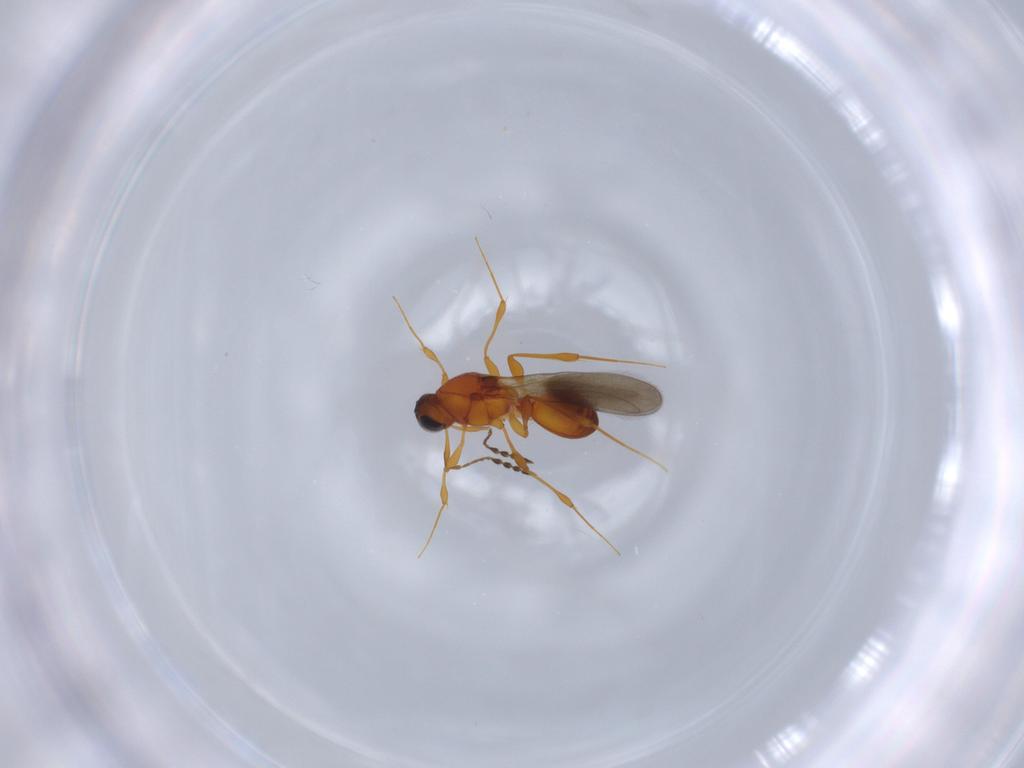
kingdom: Animalia
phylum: Arthropoda
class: Insecta
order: Hymenoptera
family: Platygastridae
